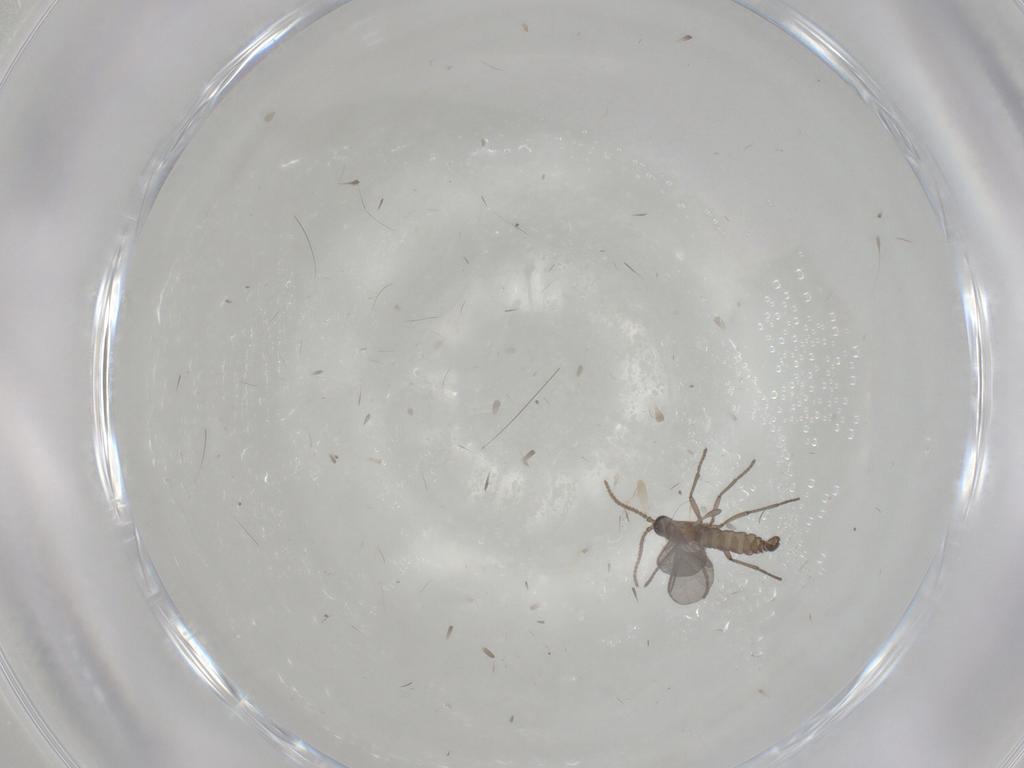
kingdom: Animalia
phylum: Arthropoda
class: Insecta
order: Diptera
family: Sciaridae
